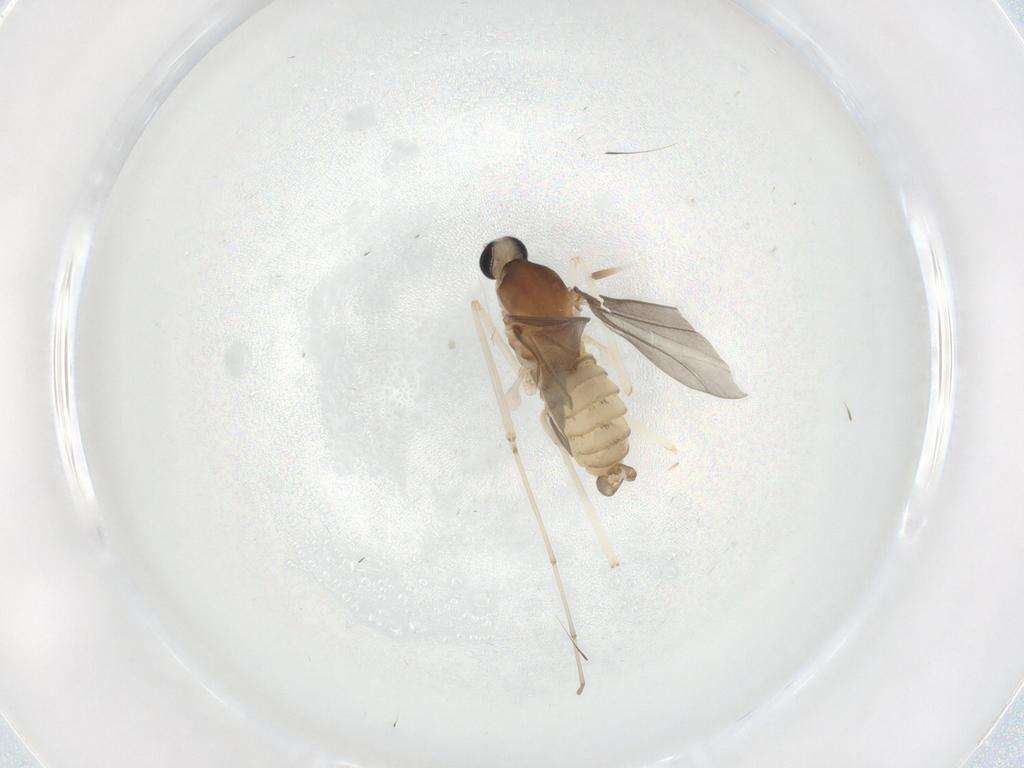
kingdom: Animalia
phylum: Arthropoda
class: Insecta
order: Diptera
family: Cecidomyiidae
